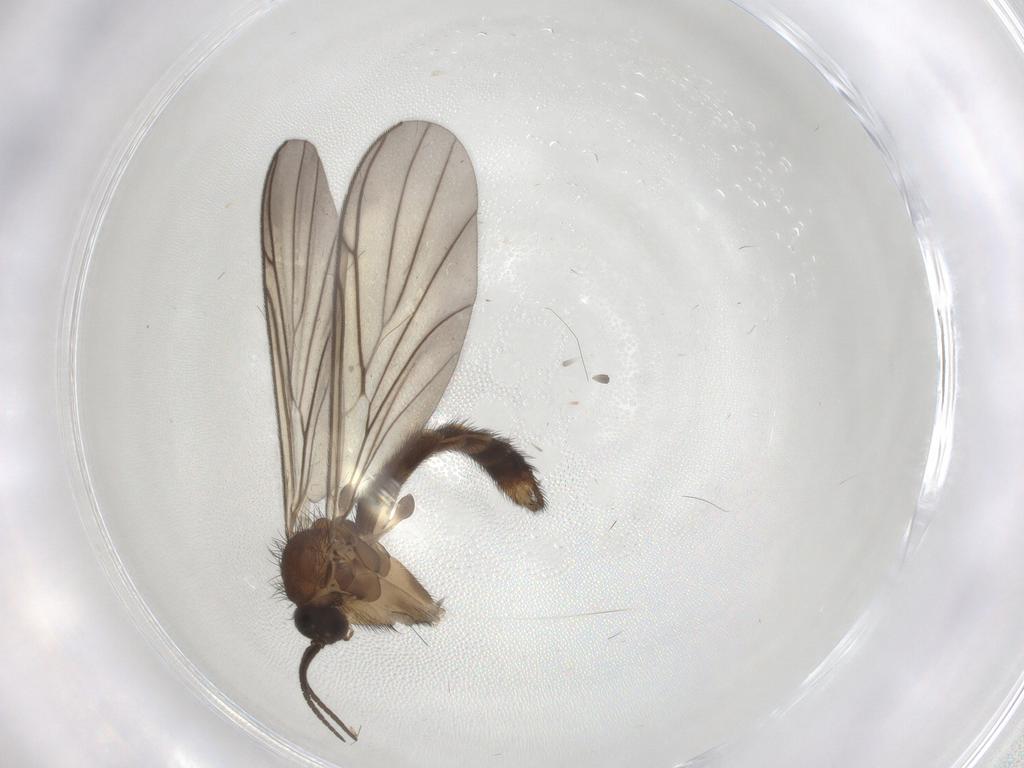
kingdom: Animalia
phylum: Arthropoda
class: Insecta
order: Diptera
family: Keroplatidae
